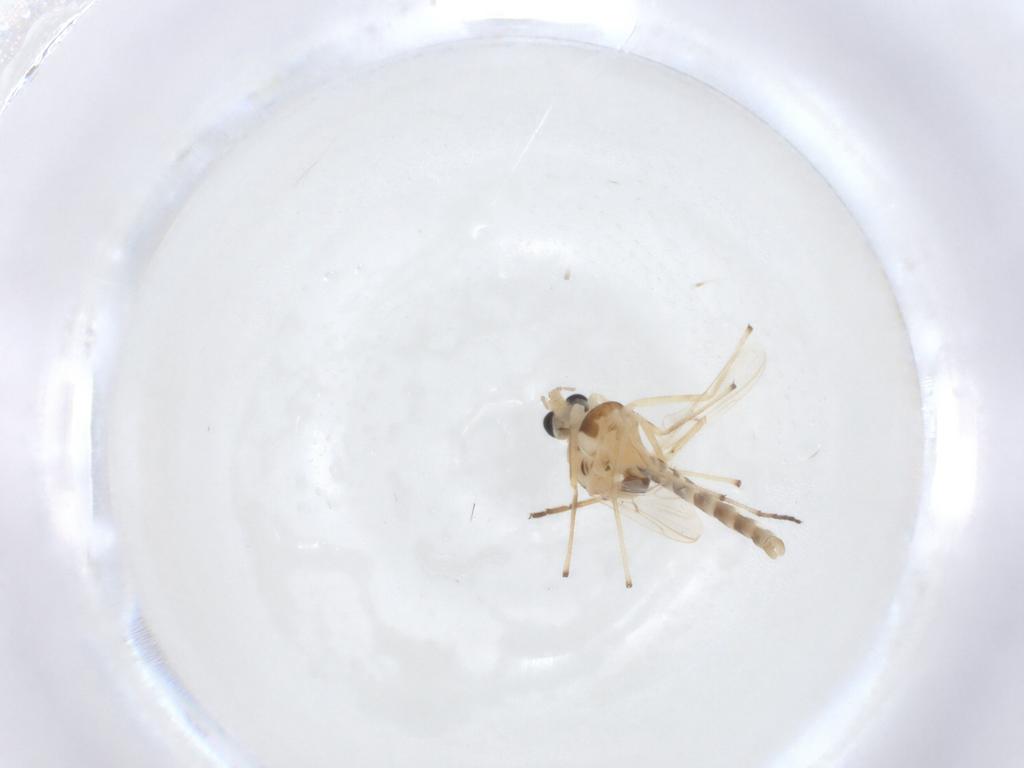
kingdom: Animalia
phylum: Arthropoda
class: Insecta
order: Diptera
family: Chironomidae
